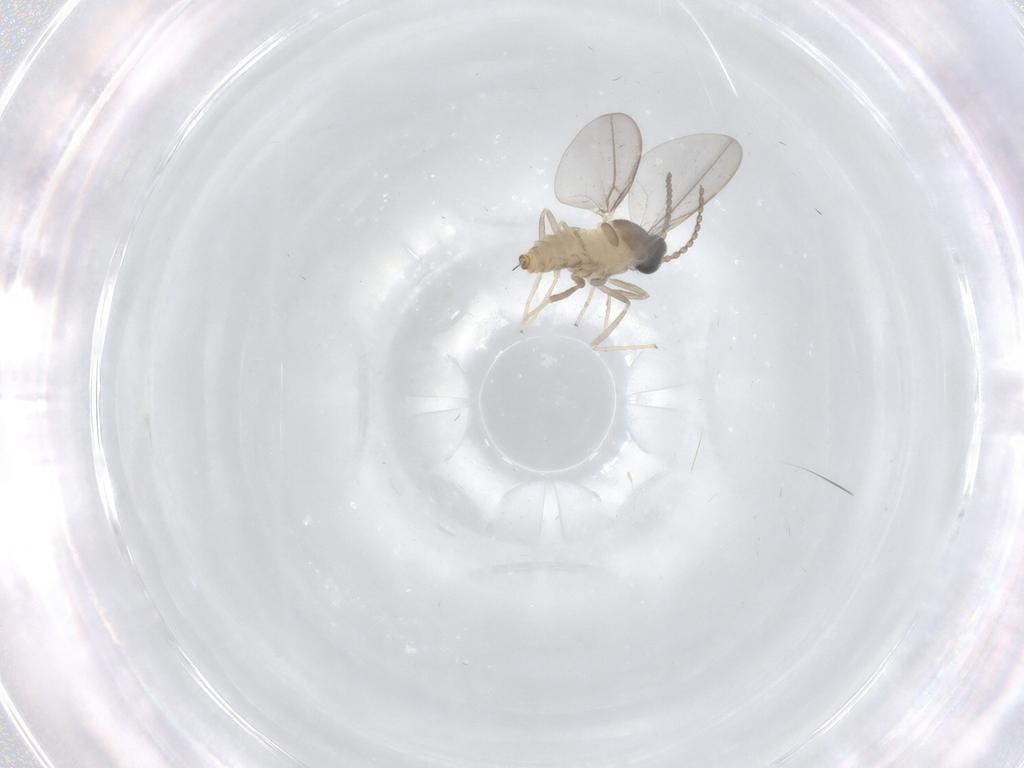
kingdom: Animalia
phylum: Arthropoda
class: Insecta
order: Diptera
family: Cecidomyiidae
